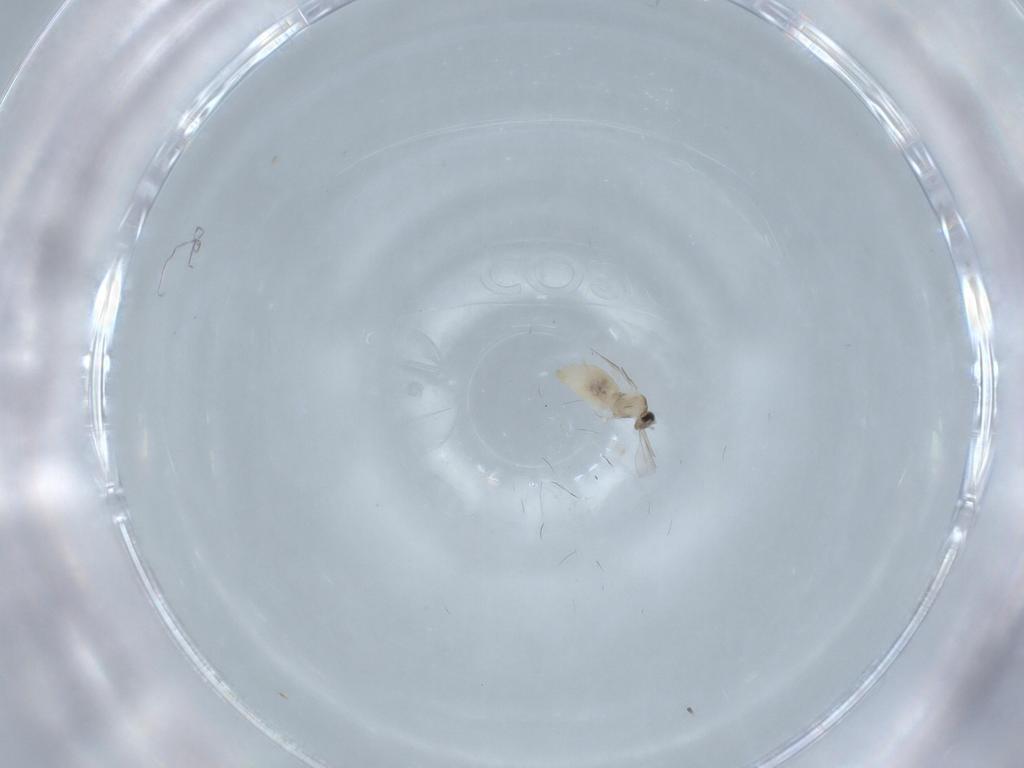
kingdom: Animalia
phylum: Arthropoda
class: Insecta
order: Diptera
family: Cecidomyiidae
